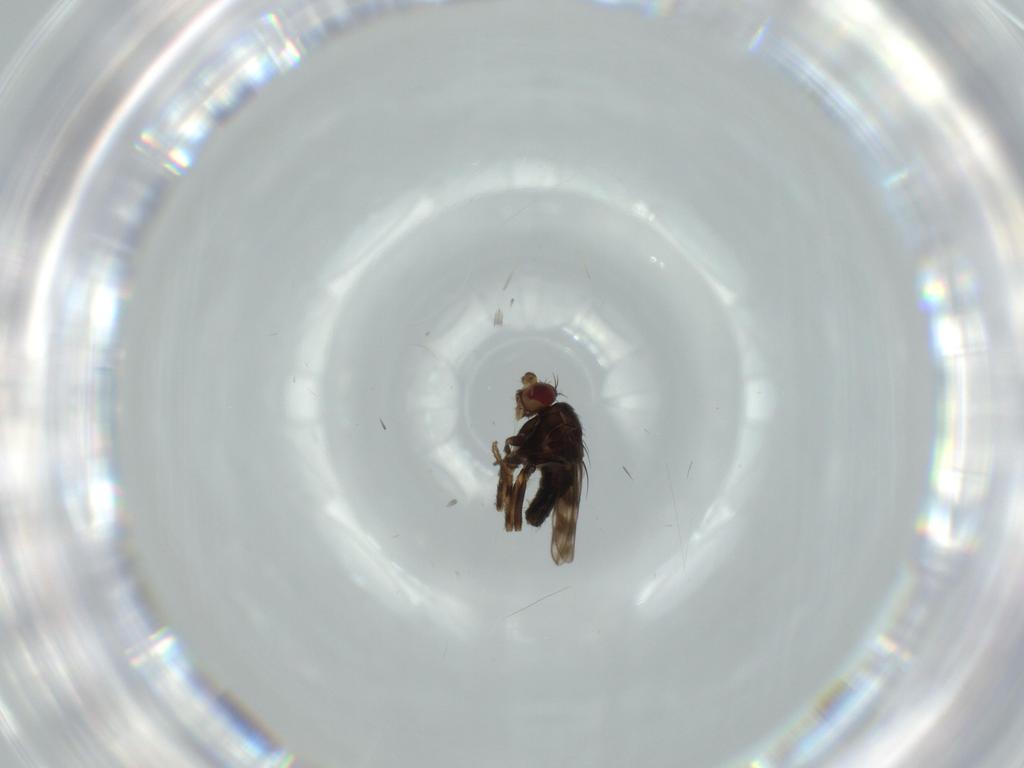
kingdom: Animalia
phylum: Arthropoda
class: Insecta
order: Diptera
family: Sphaeroceridae
